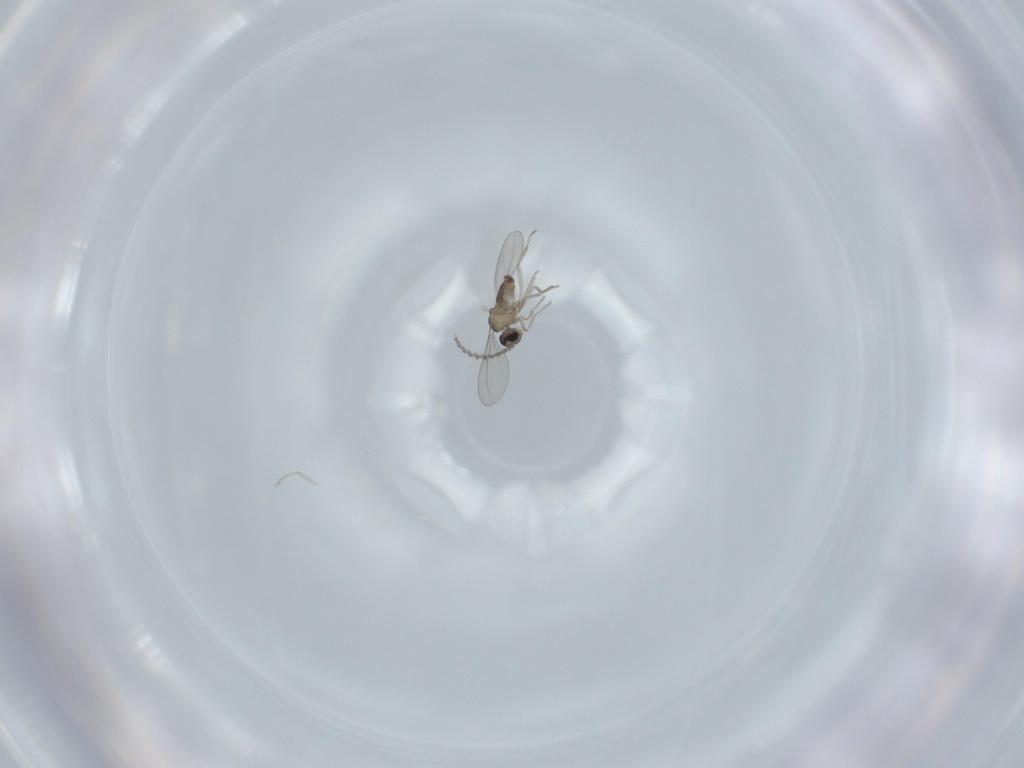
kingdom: Animalia
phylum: Arthropoda
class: Insecta
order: Diptera
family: Cecidomyiidae
